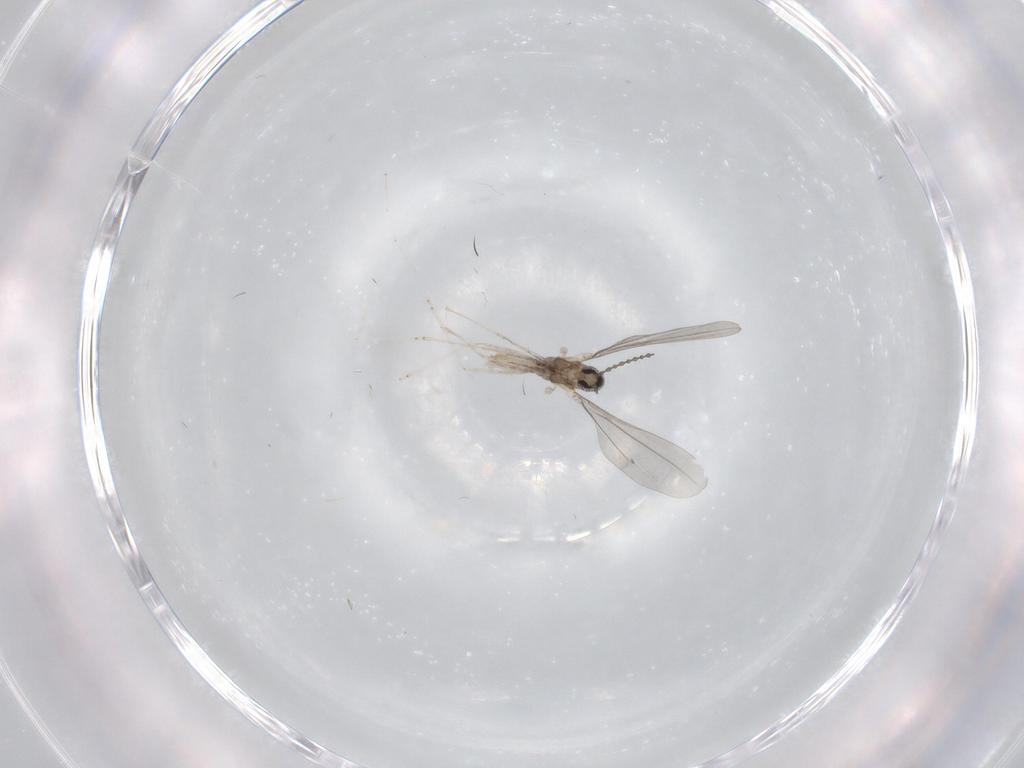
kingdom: Animalia
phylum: Arthropoda
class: Insecta
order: Diptera
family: Cecidomyiidae
